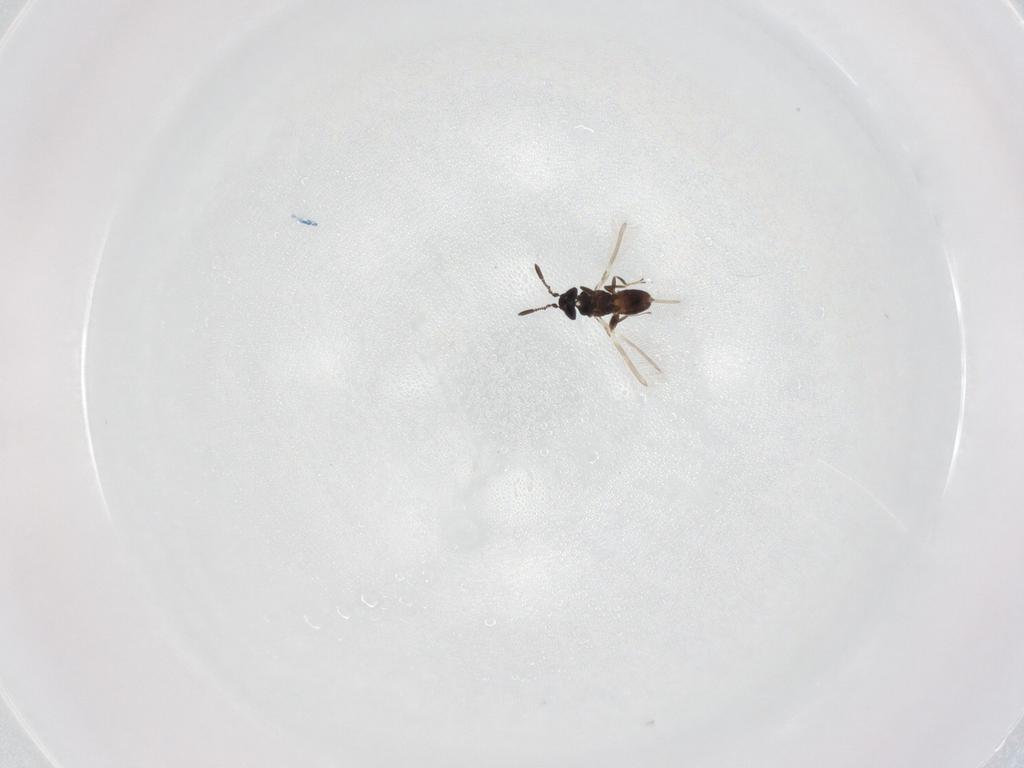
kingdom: Animalia
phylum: Arthropoda
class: Insecta
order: Hymenoptera
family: Mymaridae
